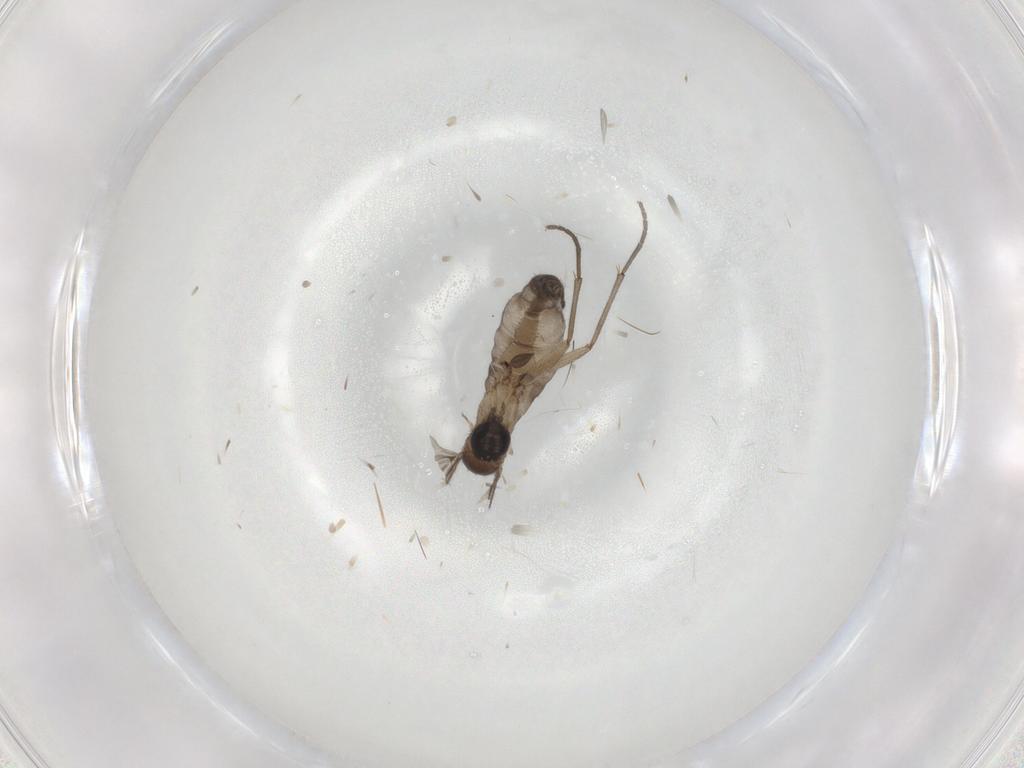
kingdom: Animalia
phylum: Arthropoda
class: Insecta
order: Diptera
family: Sciaridae
